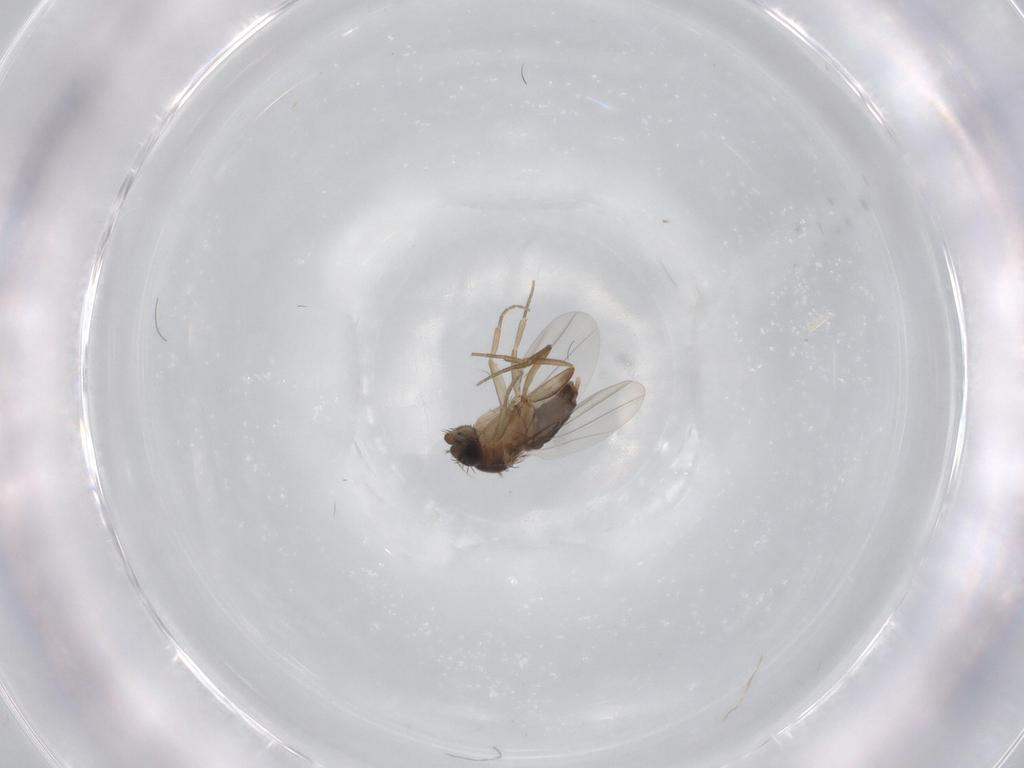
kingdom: Animalia
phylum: Arthropoda
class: Insecta
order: Diptera
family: Phoridae
